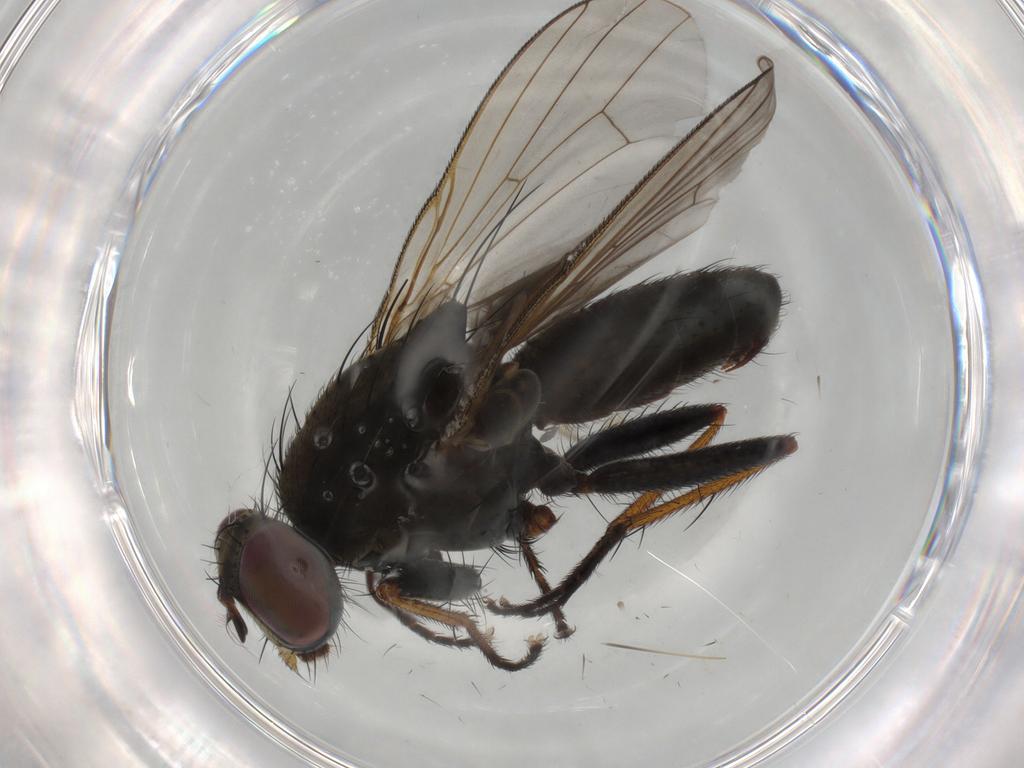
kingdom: Animalia
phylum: Arthropoda
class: Insecta
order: Diptera
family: Muscidae
